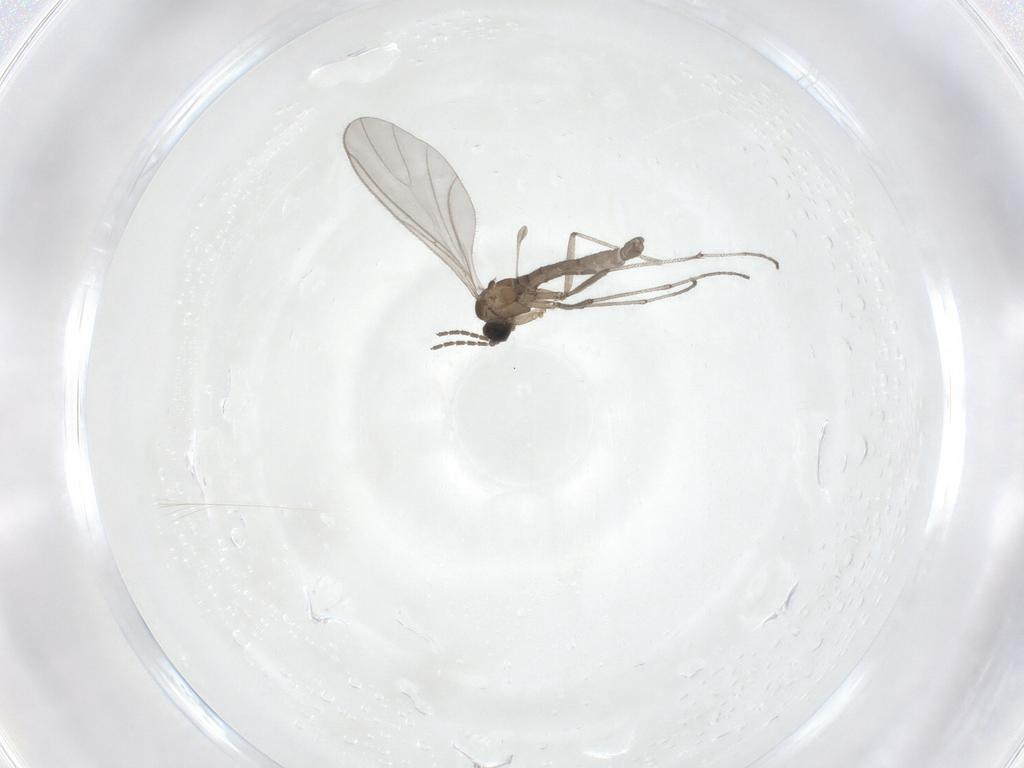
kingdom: Animalia
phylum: Arthropoda
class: Insecta
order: Diptera
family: Sciaridae
